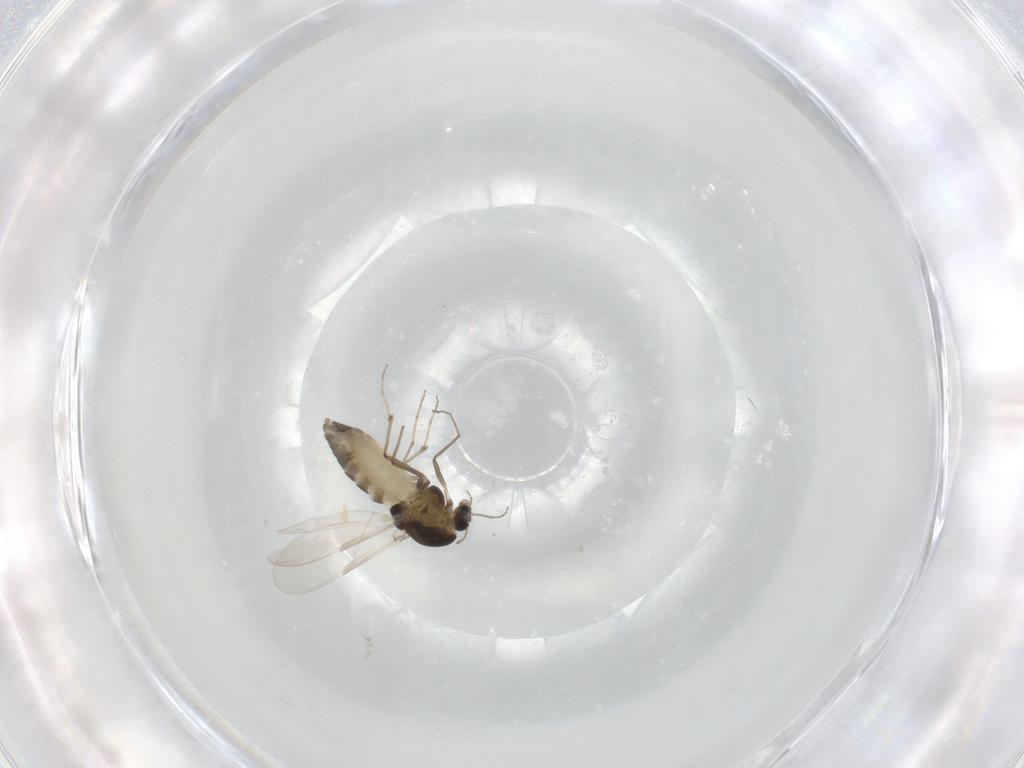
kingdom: Animalia
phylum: Arthropoda
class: Insecta
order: Diptera
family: Chironomidae
